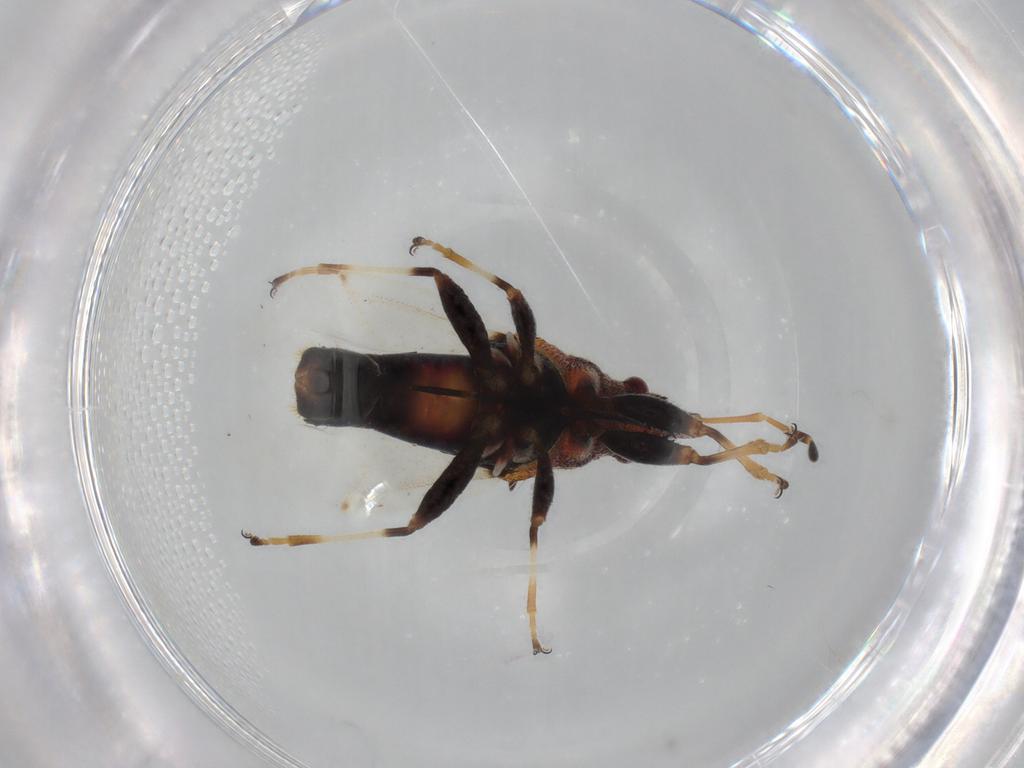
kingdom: Animalia
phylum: Arthropoda
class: Insecta
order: Hemiptera
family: Oxycarenidae
